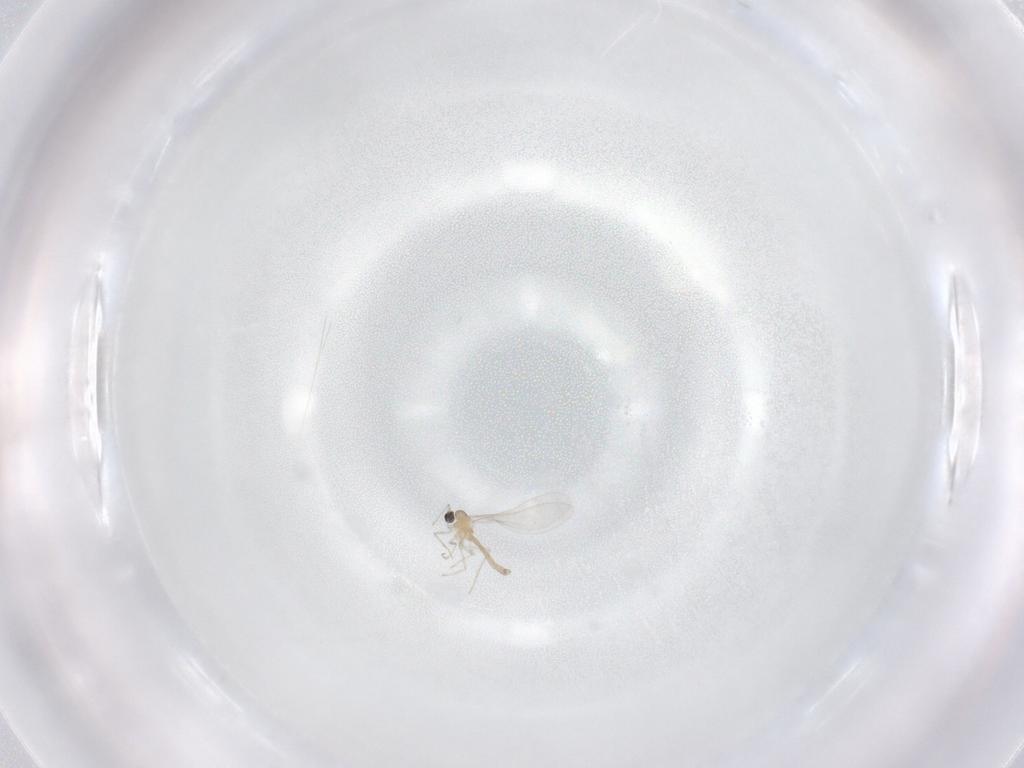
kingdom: Animalia
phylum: Arthropoda
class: Insecta
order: Diptera
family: Cecidomyiidae
